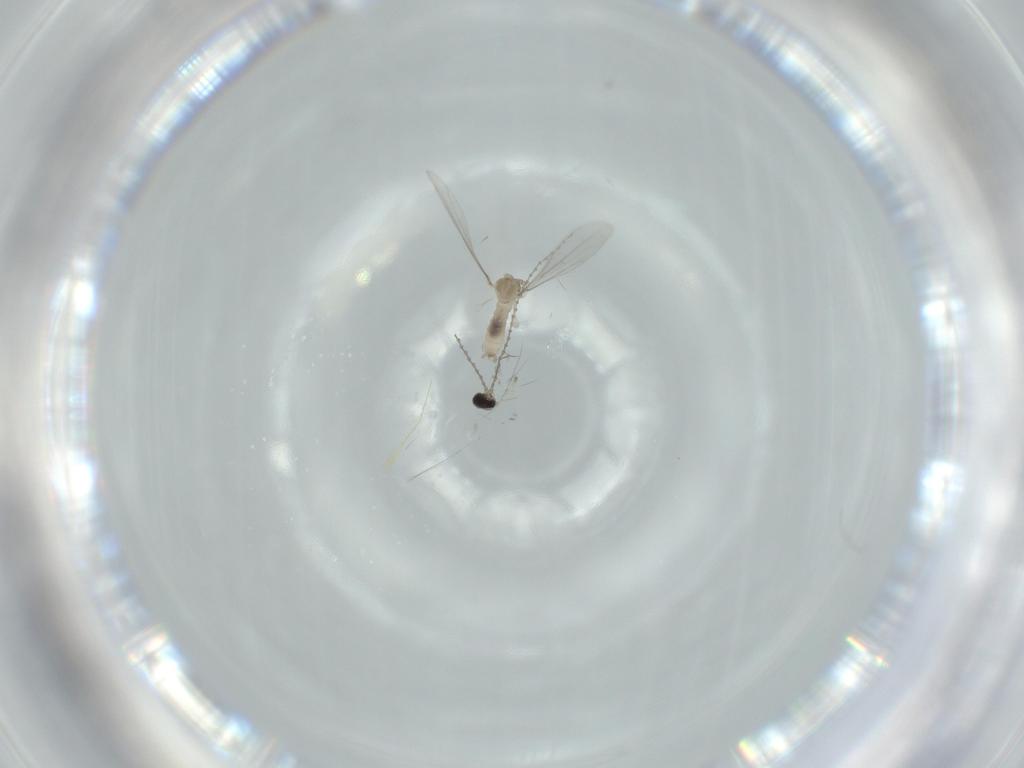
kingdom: Animalia
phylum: Arthropoda
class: Insecta
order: Diptera
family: Cecidomyiidae
